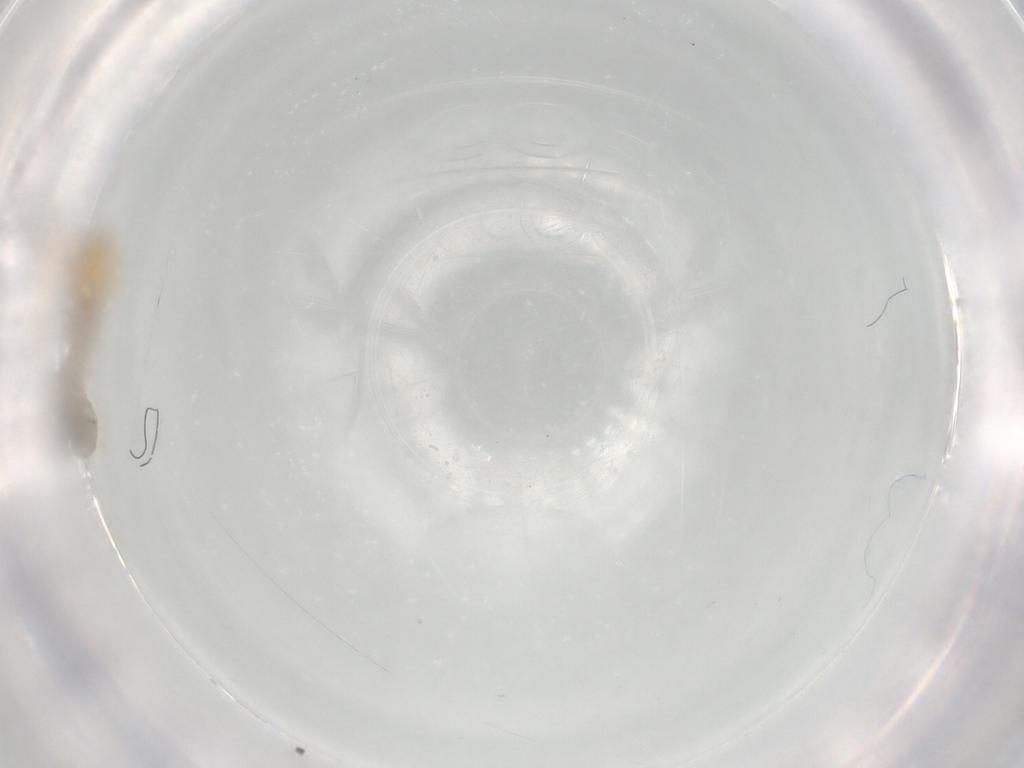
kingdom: Animalia
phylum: Arthropoda
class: Insecta
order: Diptera
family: Chironomidae
